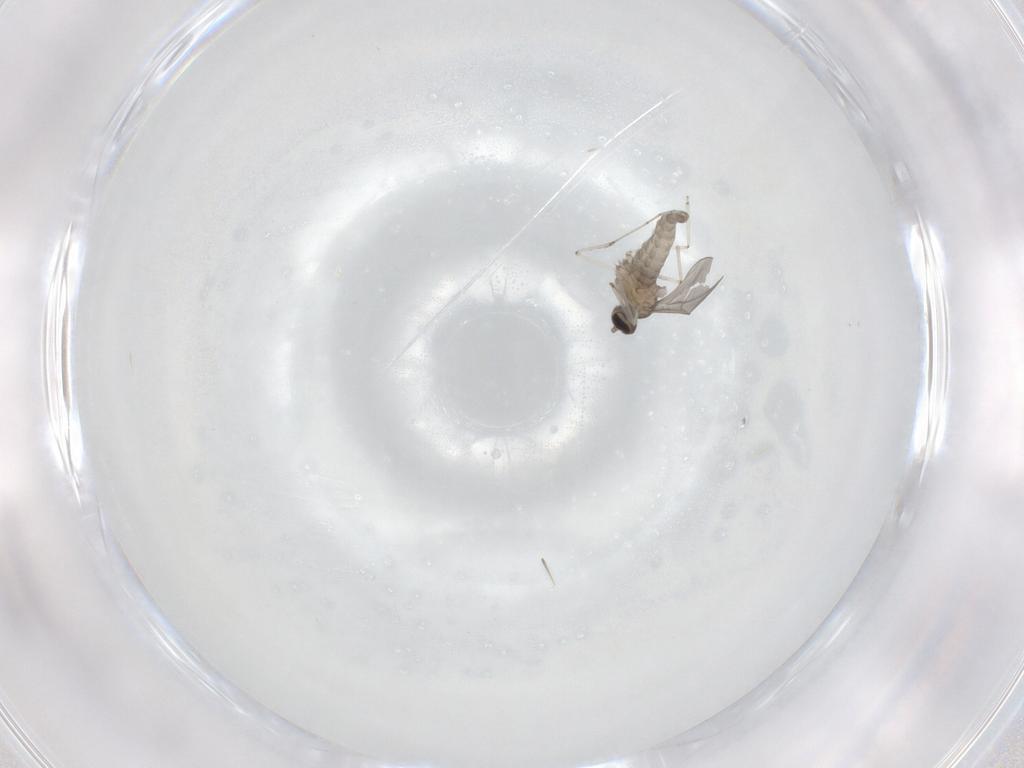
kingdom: Animalia
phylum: Arthropoda
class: Insecta
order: Diptera
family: Cecidomyiidae
